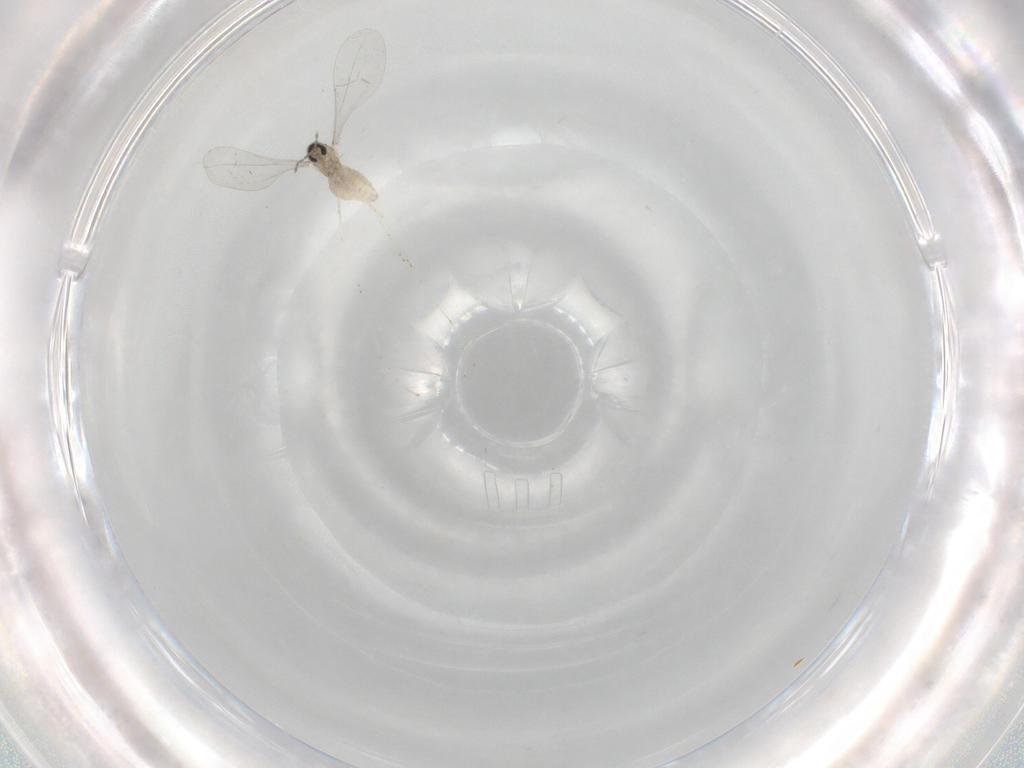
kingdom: Animalia
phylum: Arthropoda
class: Insecta
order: Diptera
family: Cecidomyiidae
